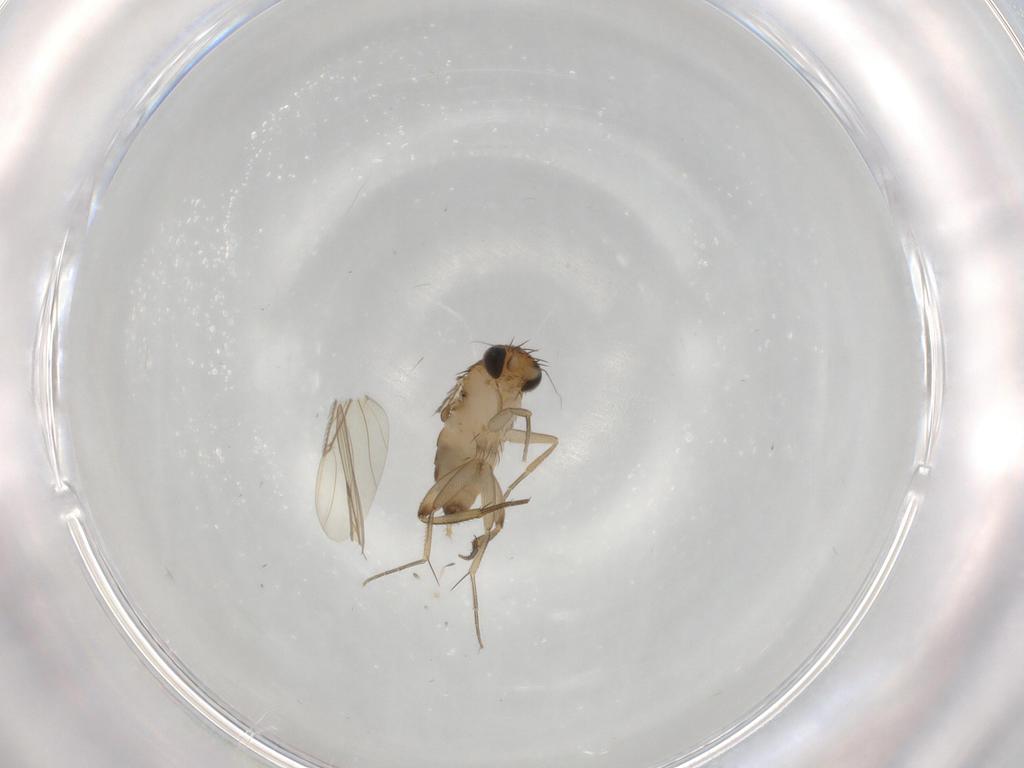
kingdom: Animalia
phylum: Arthropoda
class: Insecta
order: Diptera
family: Phoridae
